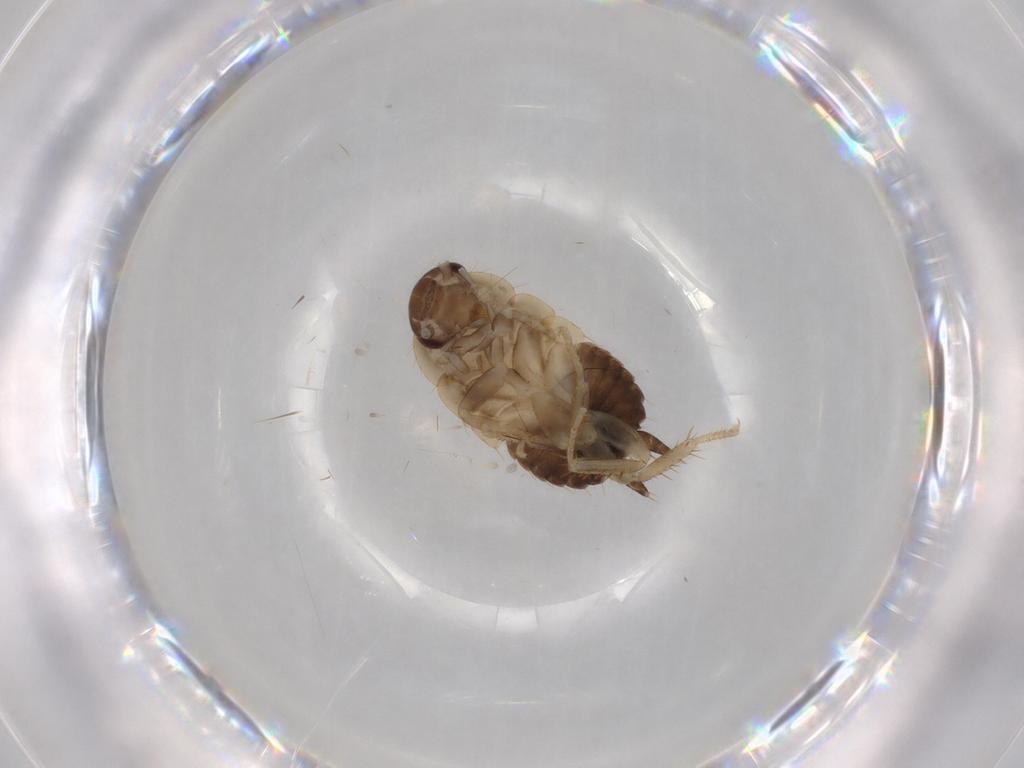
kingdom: Animalia
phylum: Arthropoda
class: Insecta
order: Blattodea
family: Ectobiidae
